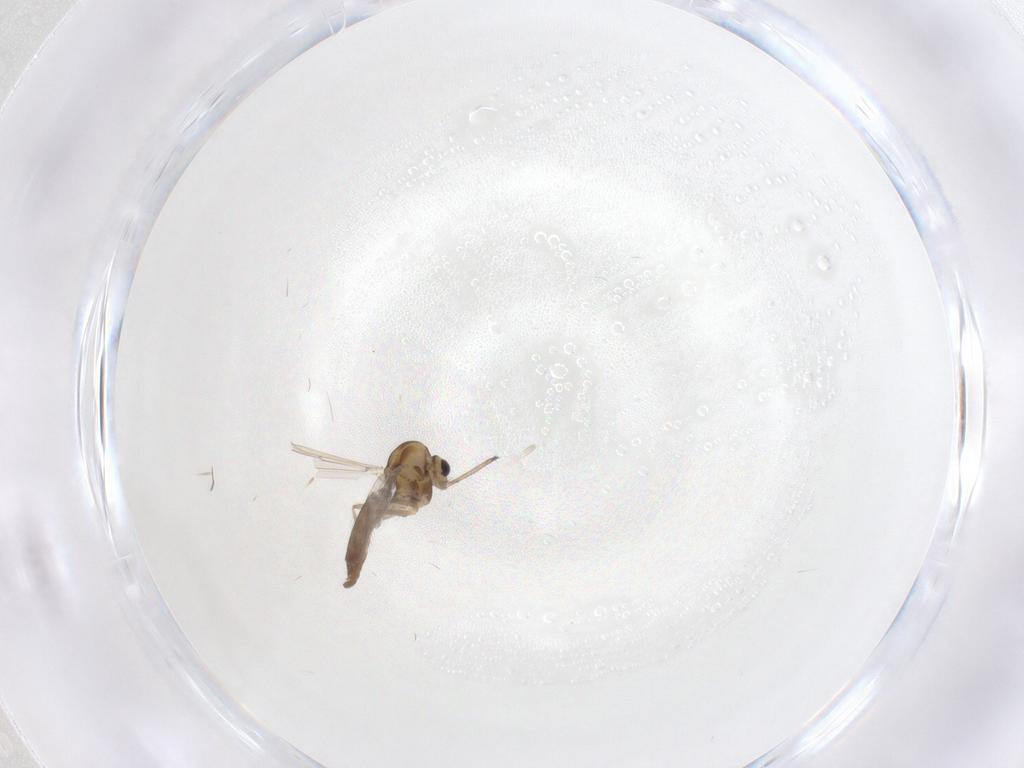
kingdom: Animalia
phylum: Arthropoda
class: Insecta
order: Diptera
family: Chironomidae
